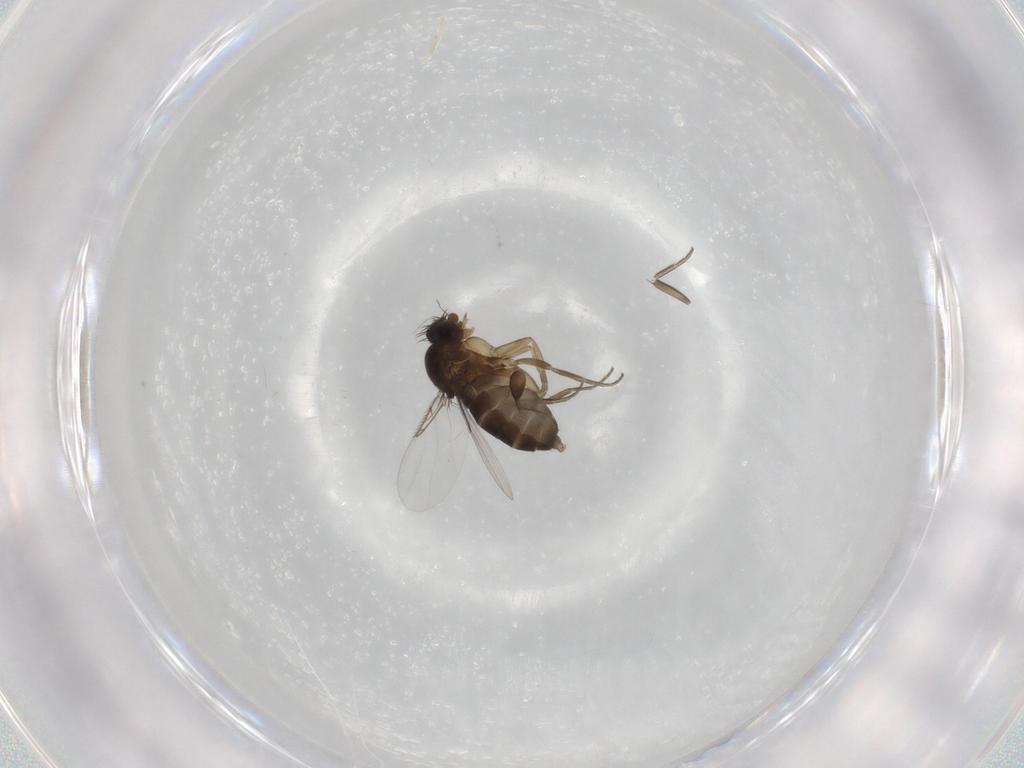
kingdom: Animalia
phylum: Arthropoda
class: Insecta
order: Diptera
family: Phoridae
